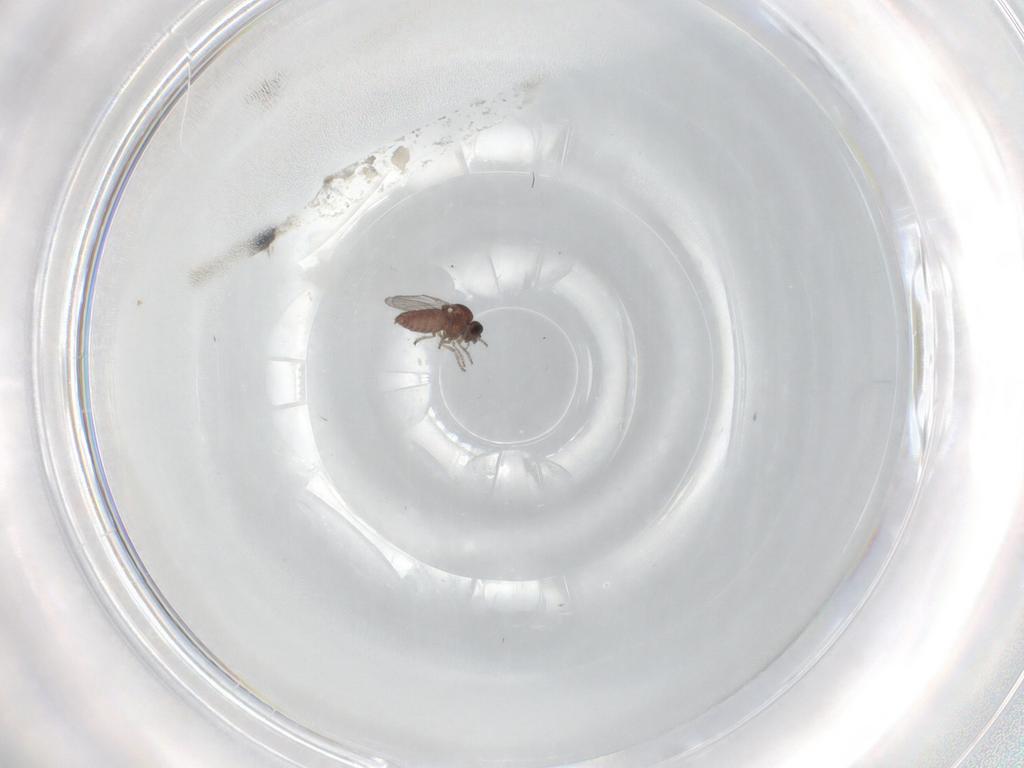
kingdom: Animalia
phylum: Arthropoda
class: Insecta
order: Diptera
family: Ceratopogonidae
